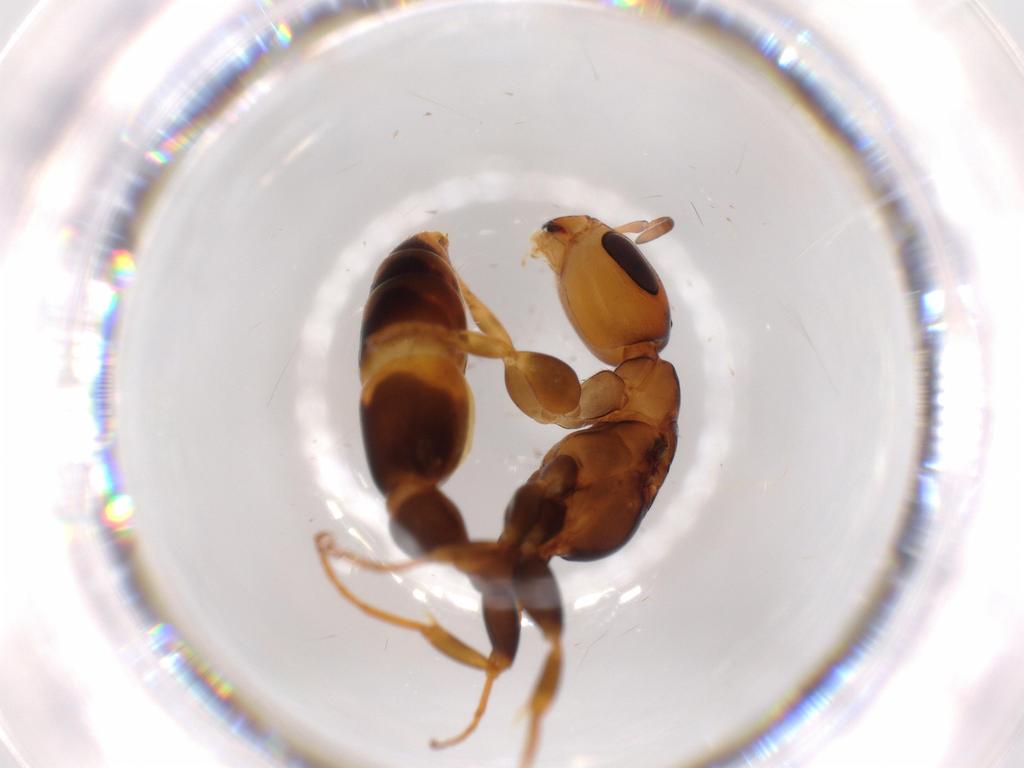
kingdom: Animalia
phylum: Arthropoda
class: Insecta
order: Hymenoptera
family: Formicidae
